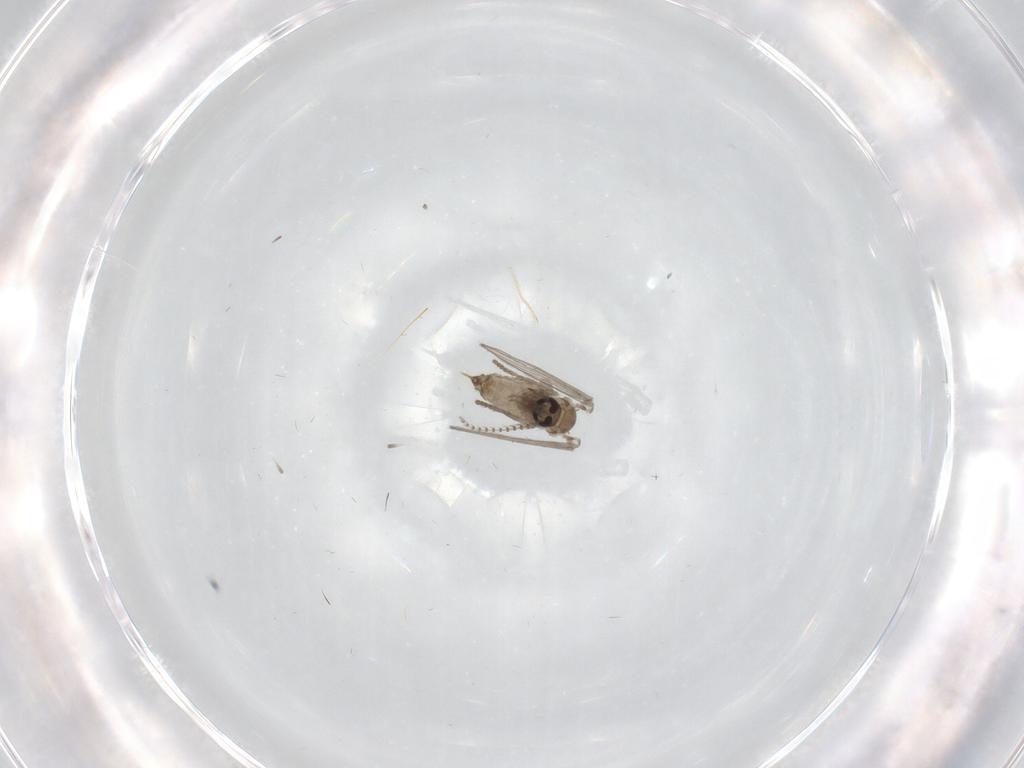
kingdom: Animalia
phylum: Arthropoda
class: Insecta
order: Diptera
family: Psychodidae
